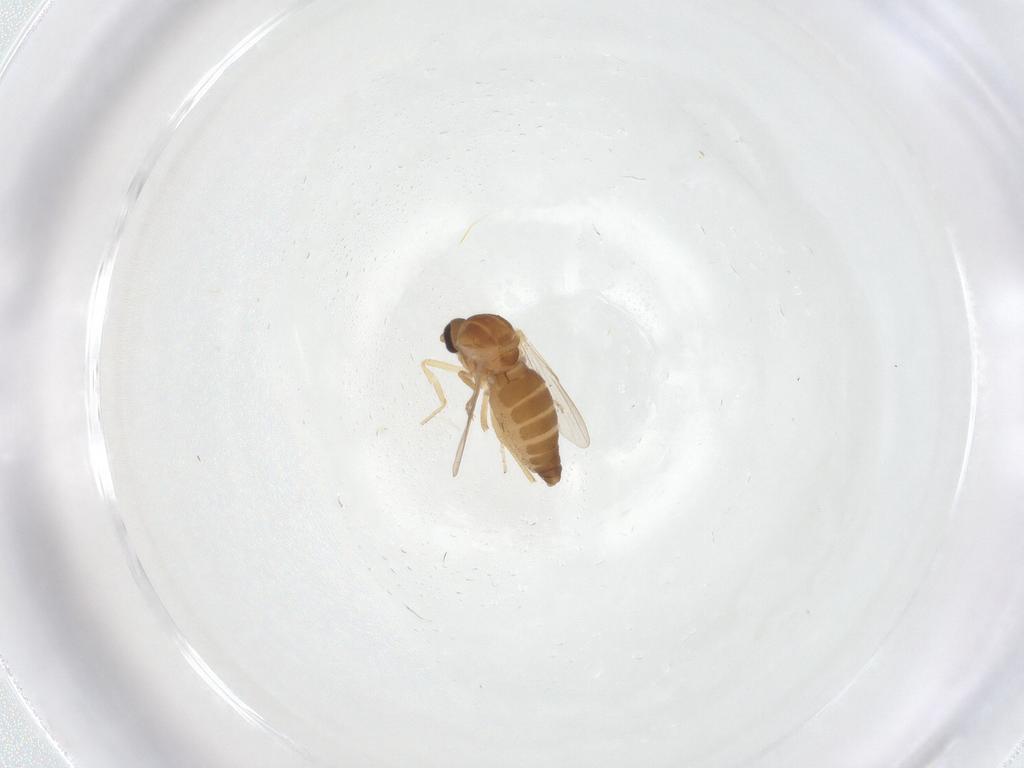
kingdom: Animalia
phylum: Arthropoda
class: Insecta
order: Diptera
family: Ceratopogonidae
